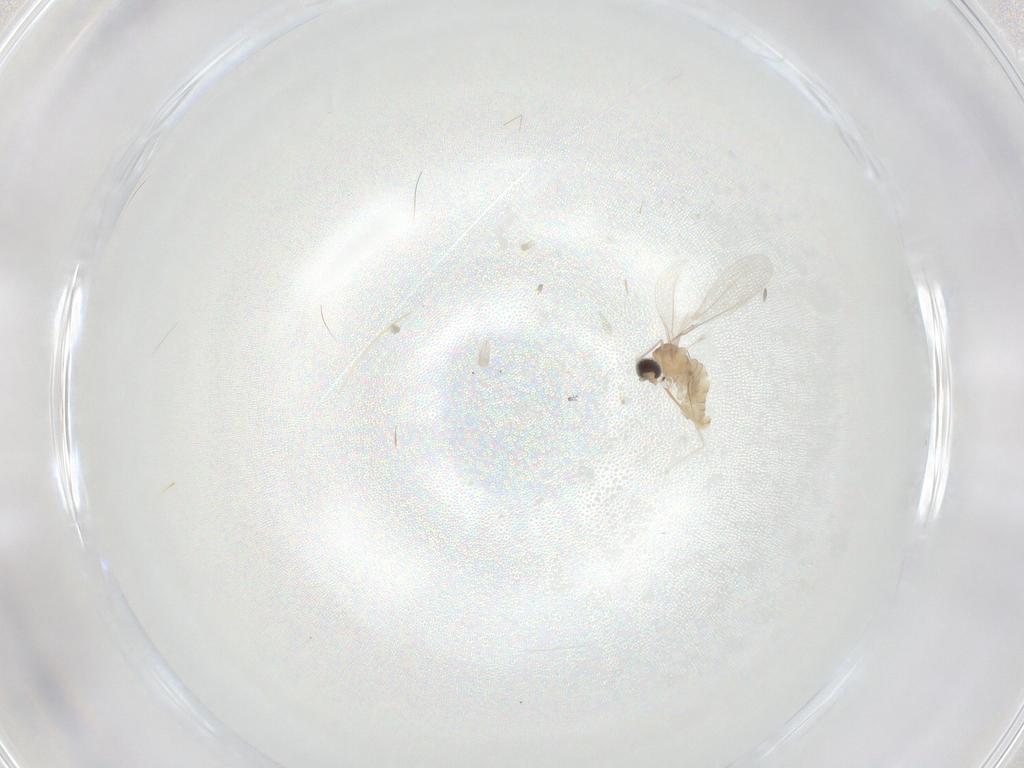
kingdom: Animalia
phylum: Arthropoda
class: Insecta
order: Diptera
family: Cecidomyiidae
